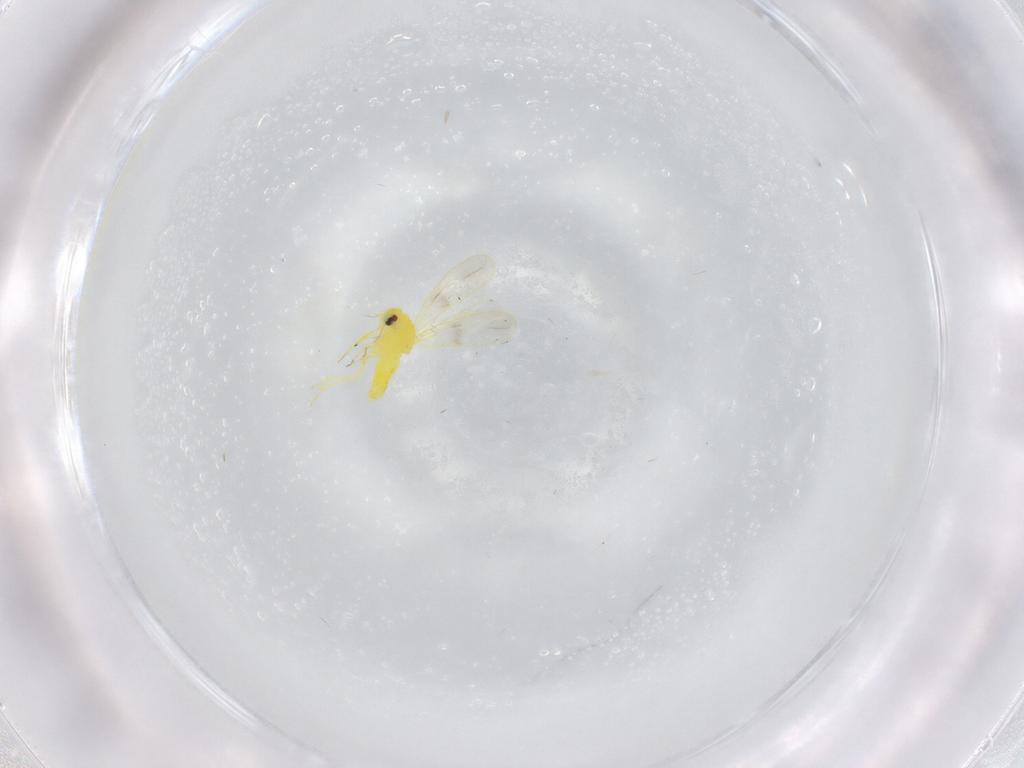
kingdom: Animalia
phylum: Arthropoda
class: Insecta
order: Hemiptera
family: Aleyrodidae
